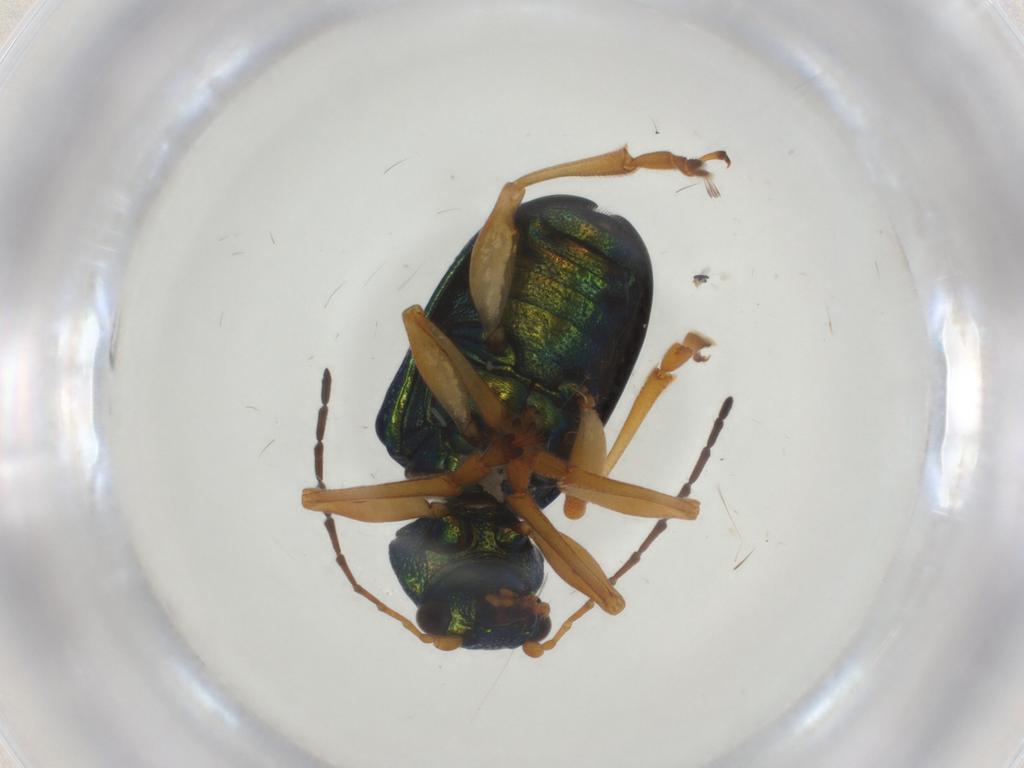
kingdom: Animalia
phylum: Arthropoda
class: Insecta
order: Coleoptera
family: Chrysomelidae
